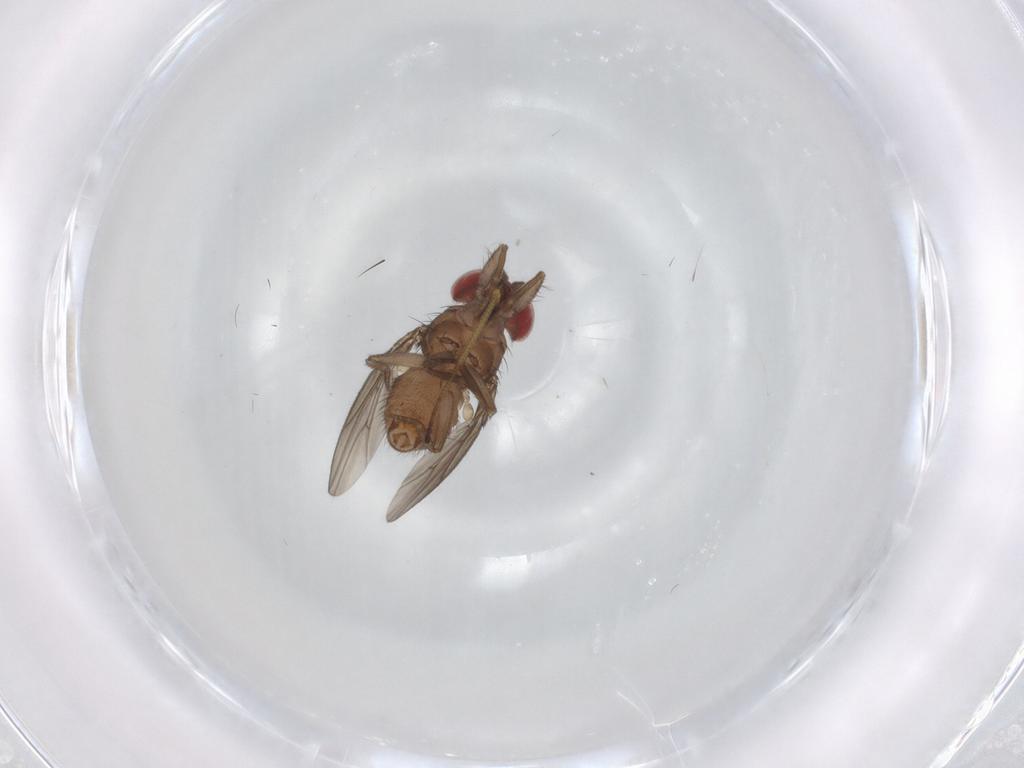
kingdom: Animalia
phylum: Arthropoda
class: Insecta
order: Diptera
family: Drosophilidae
